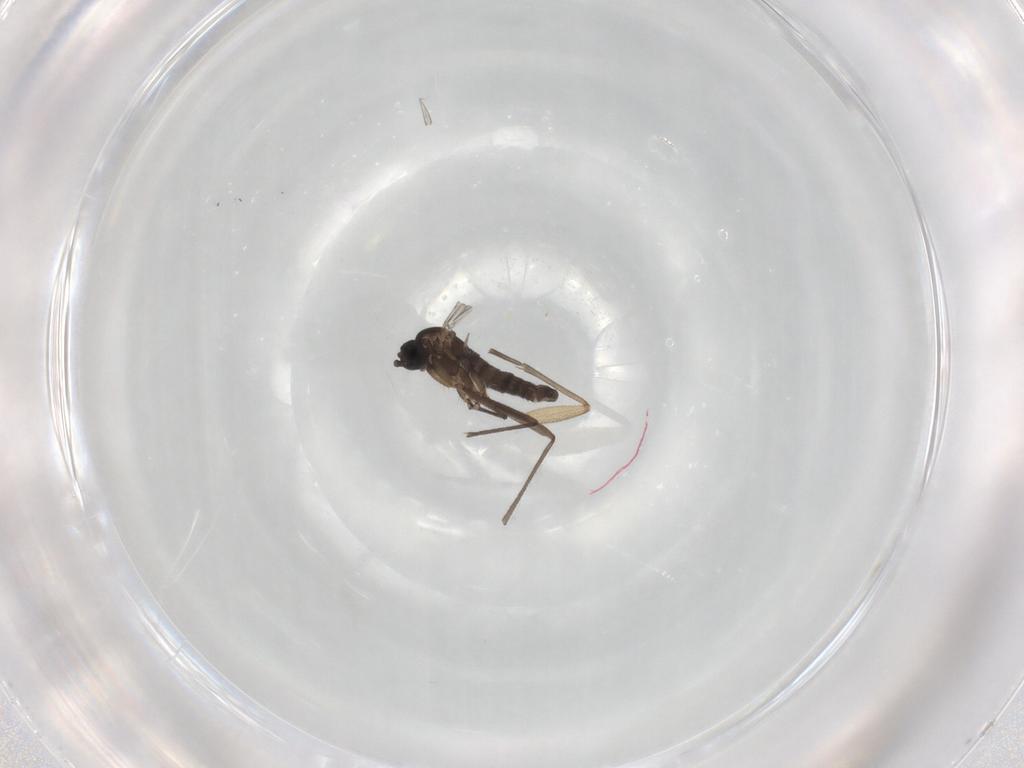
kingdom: Animalia
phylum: Arthropoda
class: Insecta
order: Diptera
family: Sciaridae
